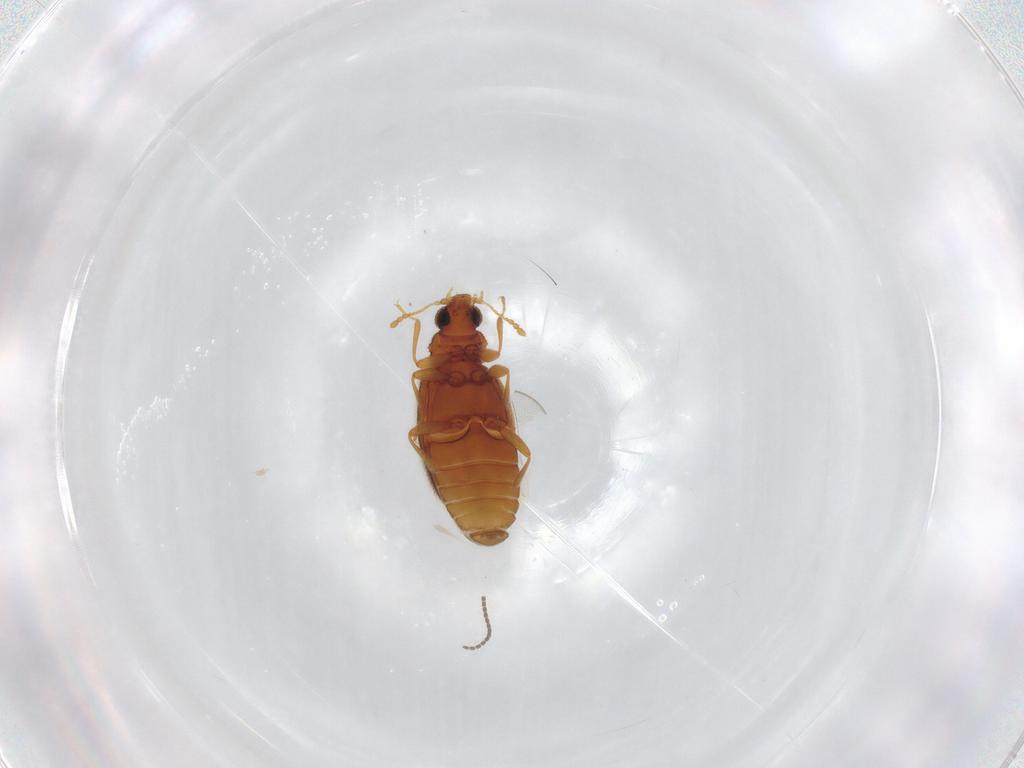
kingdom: Animalia
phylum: Arthropoda
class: Insecta
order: Coleoptera
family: Latridiidae
